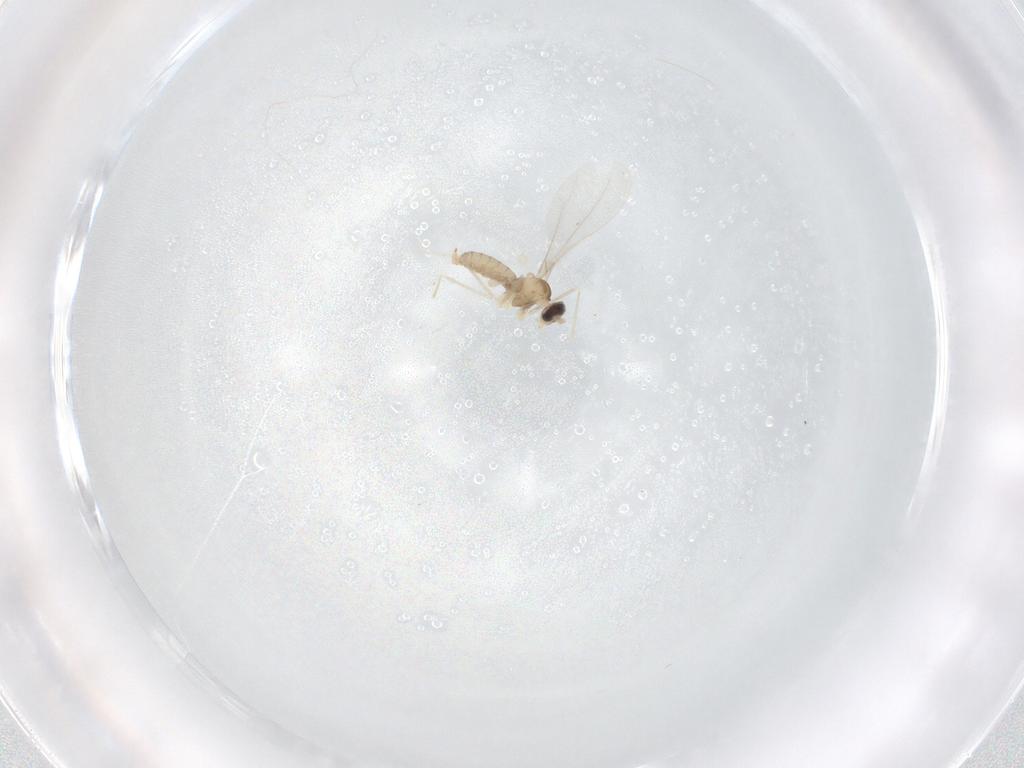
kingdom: Animalia
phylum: Arthropoda
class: Insecta
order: Diptera
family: Cecidomyiidae
